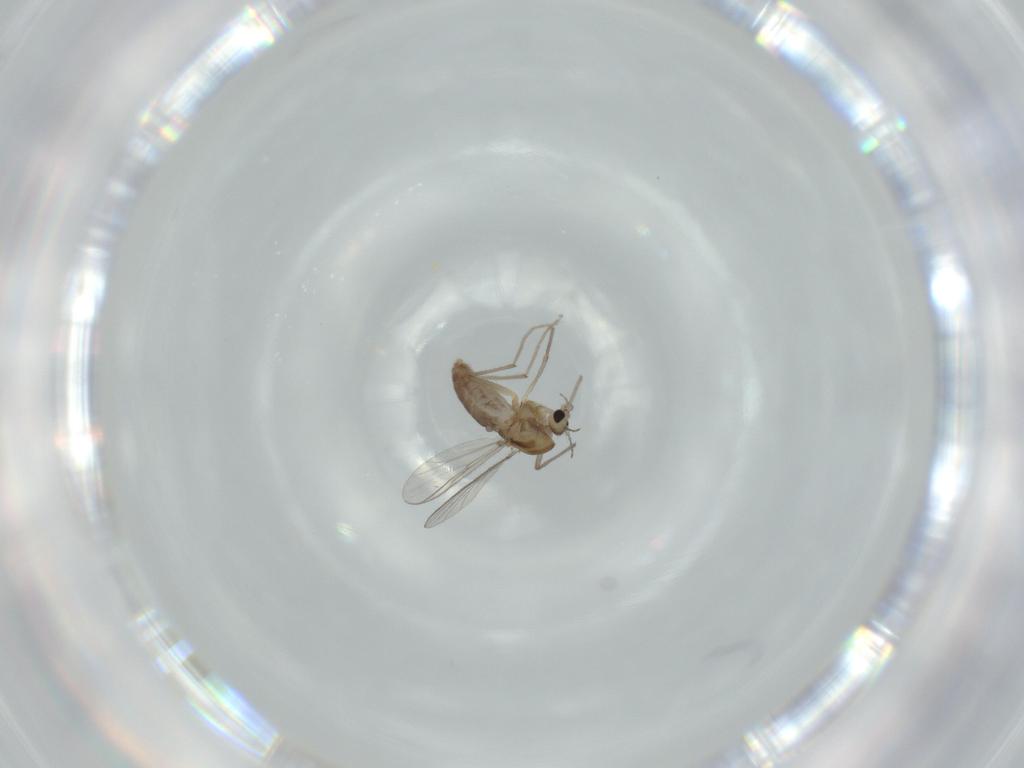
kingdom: Animalia
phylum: Arthropoda
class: Insecta
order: Diptera
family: Chironomidae
